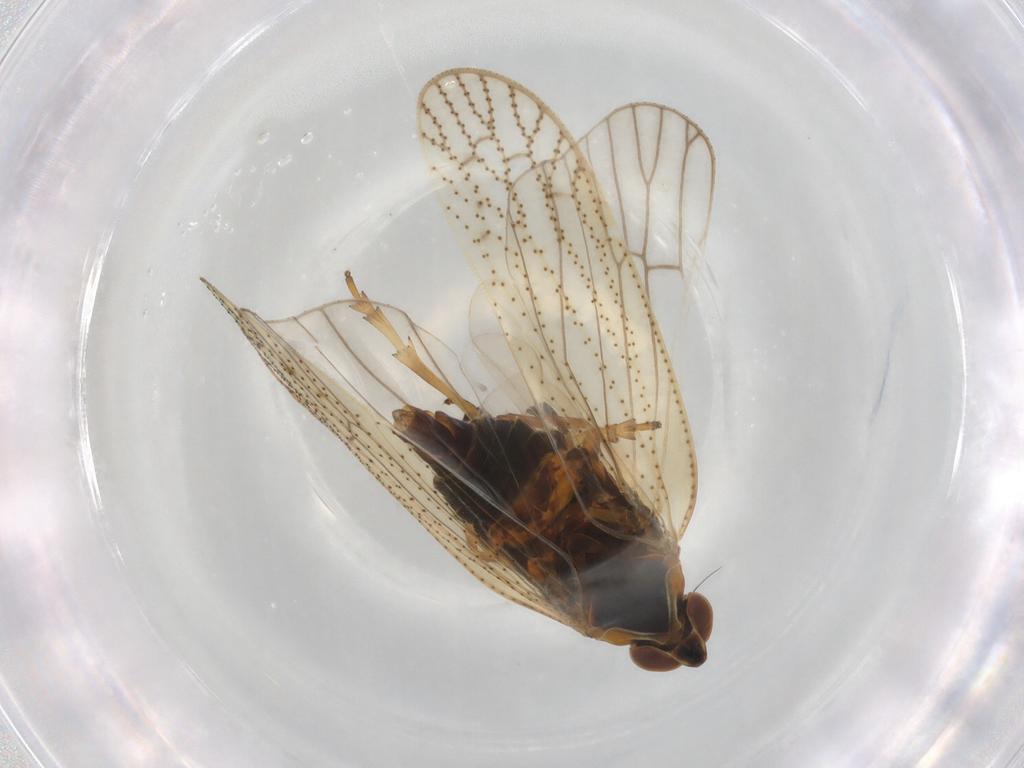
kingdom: Animalia
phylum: Arthropoda
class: Insecta
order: Hemiptera
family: Cixiidae
